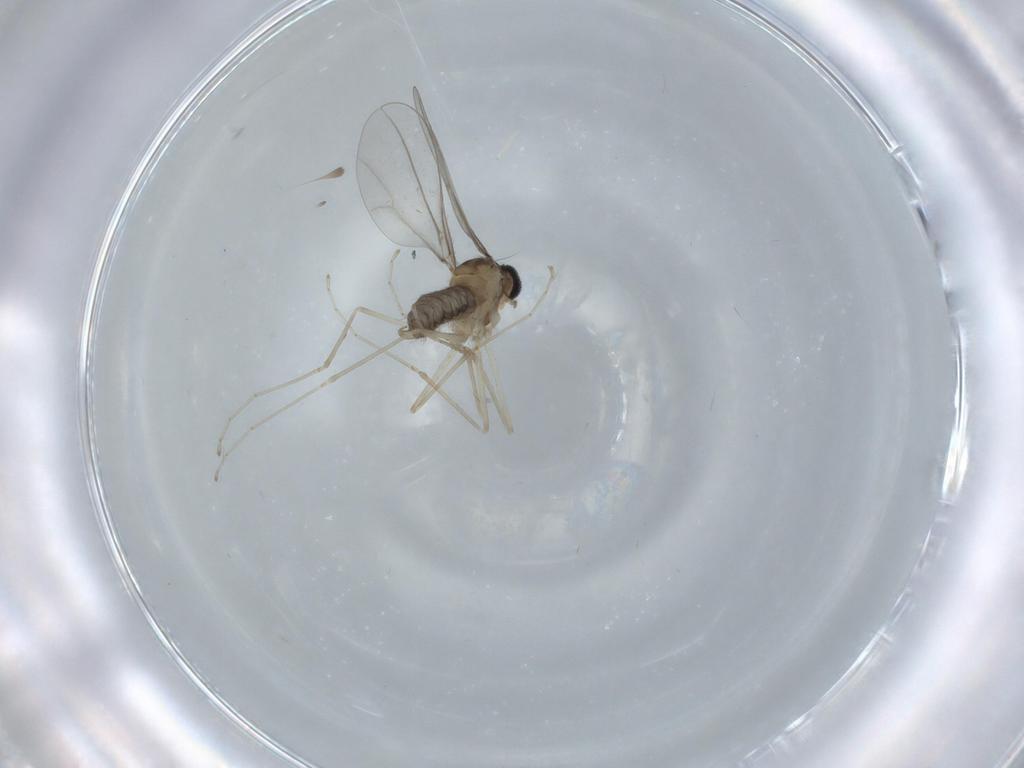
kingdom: Animalia
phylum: Arthropoda
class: Insecta
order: Diptera
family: Cecidomyiidae
